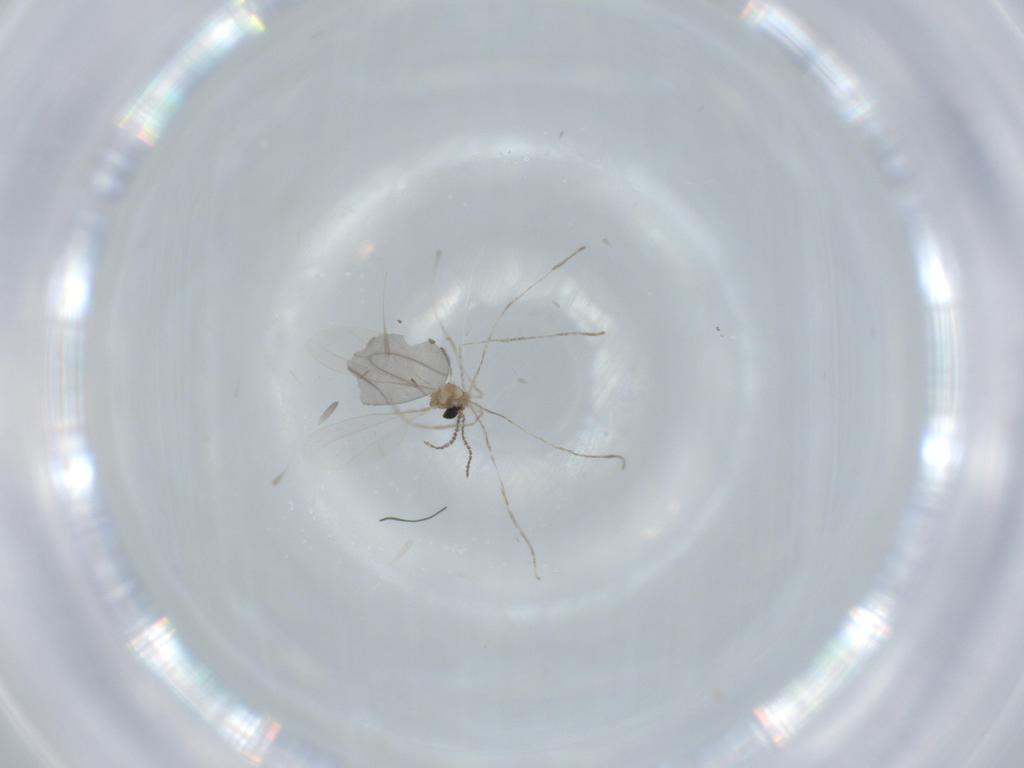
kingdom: Animalia
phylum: Arthropoda
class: Insecta
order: Diptera
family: Cecidomyiidae
